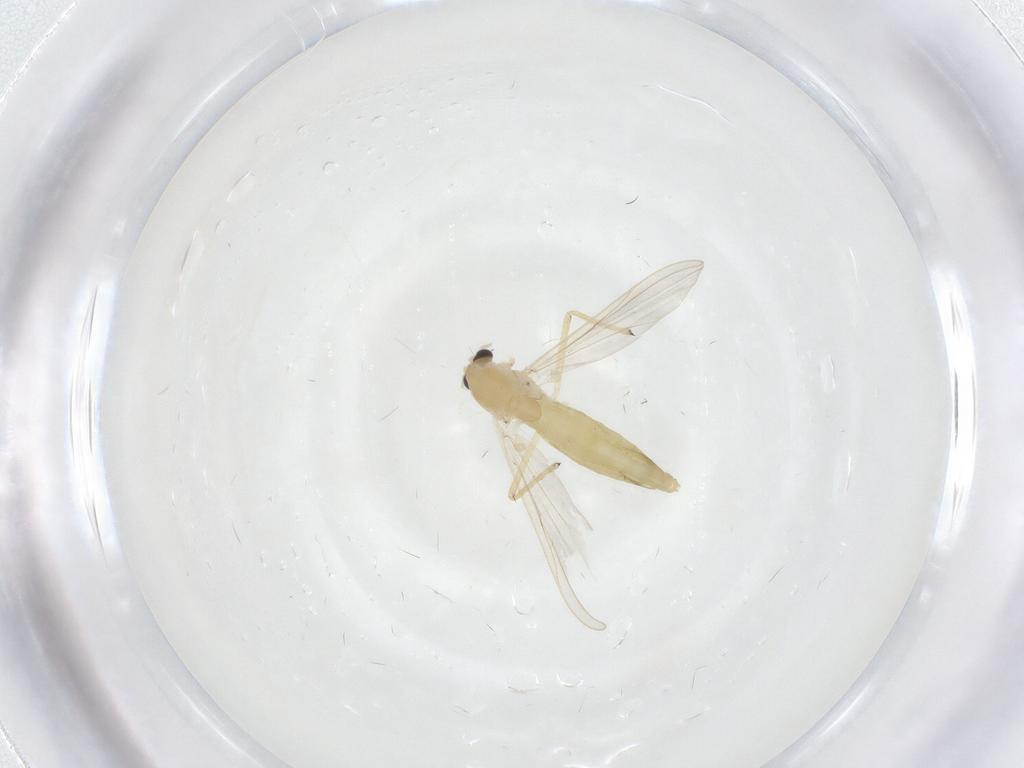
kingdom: Animalia
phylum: Arthropoda
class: Insecta
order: Diptera
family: Chironomidae
